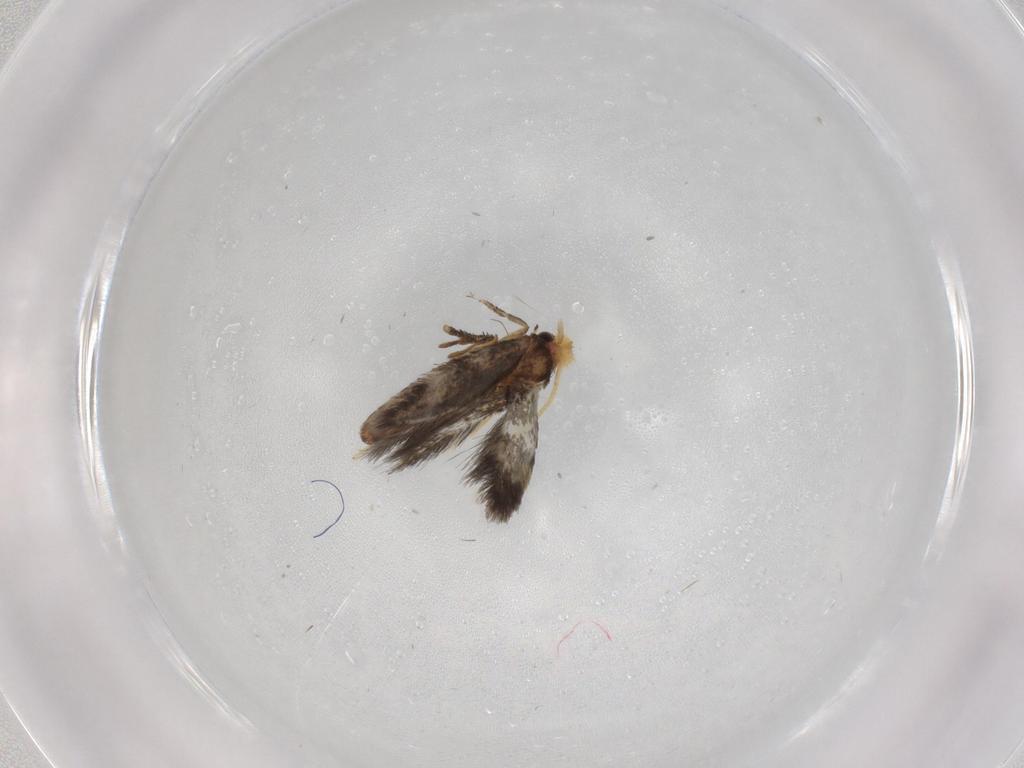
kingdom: Animalia
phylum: Arthropoda
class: Insecta
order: Lepidoptera
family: Nepticulidae
